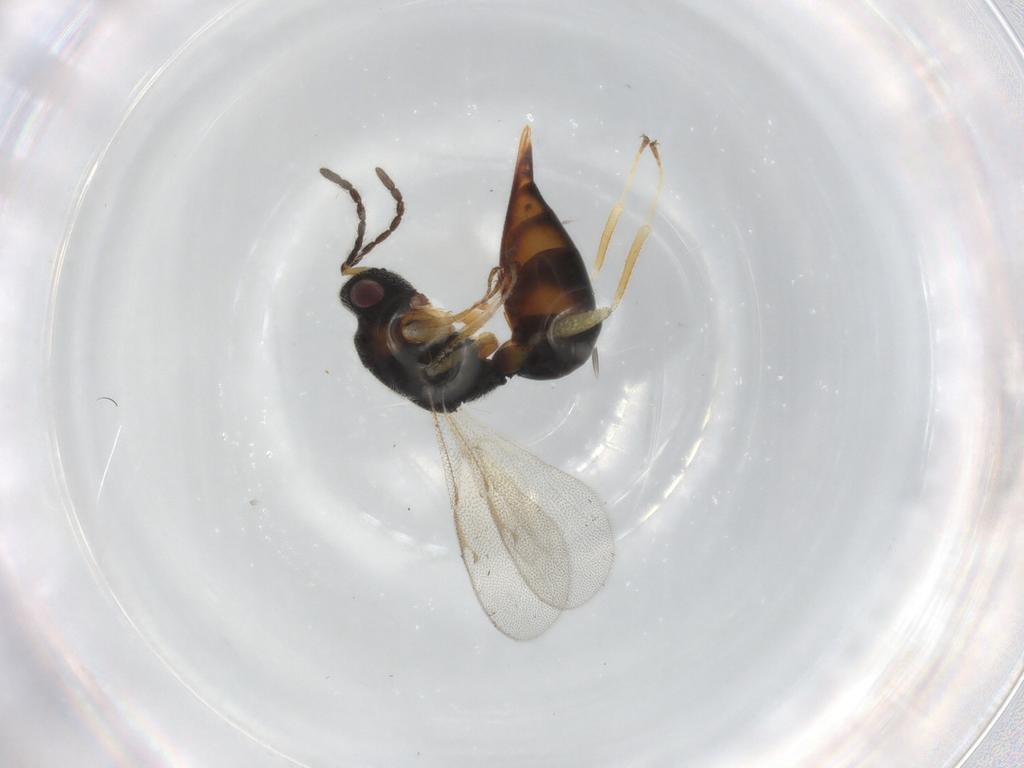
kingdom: Animalia
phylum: Arthropoda
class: Insecta
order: Hymenoptera
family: Eurytomidae
